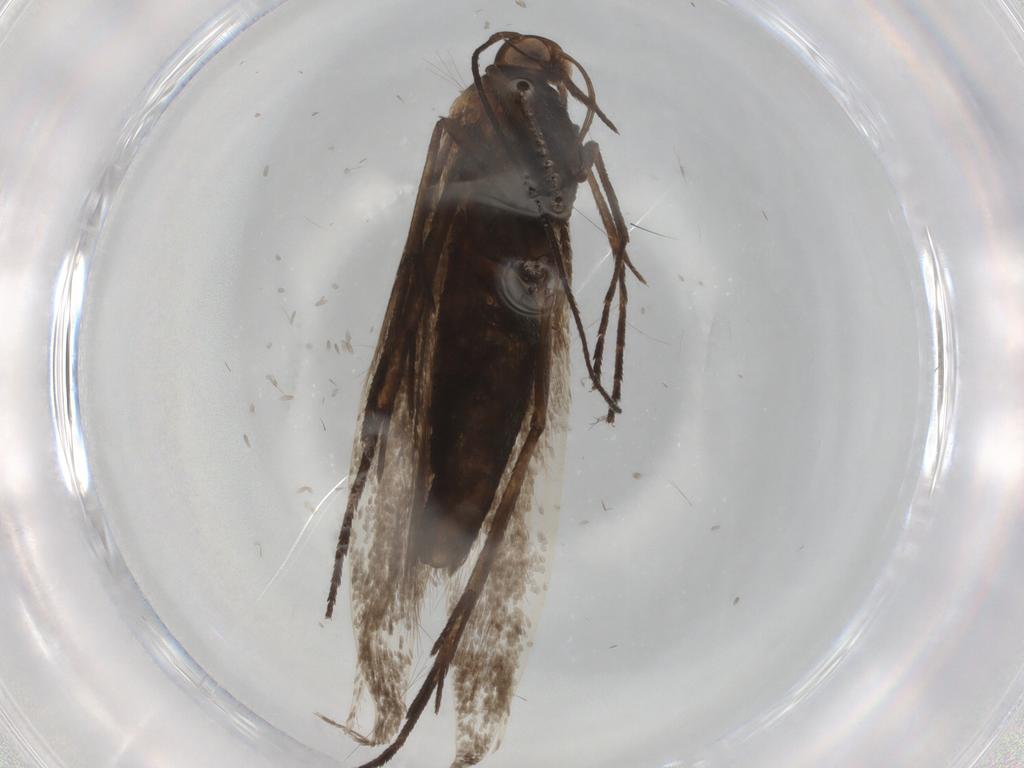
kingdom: Animalia
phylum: Arthropoda
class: Insecta
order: Lepidoptera
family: Coleophoridae
